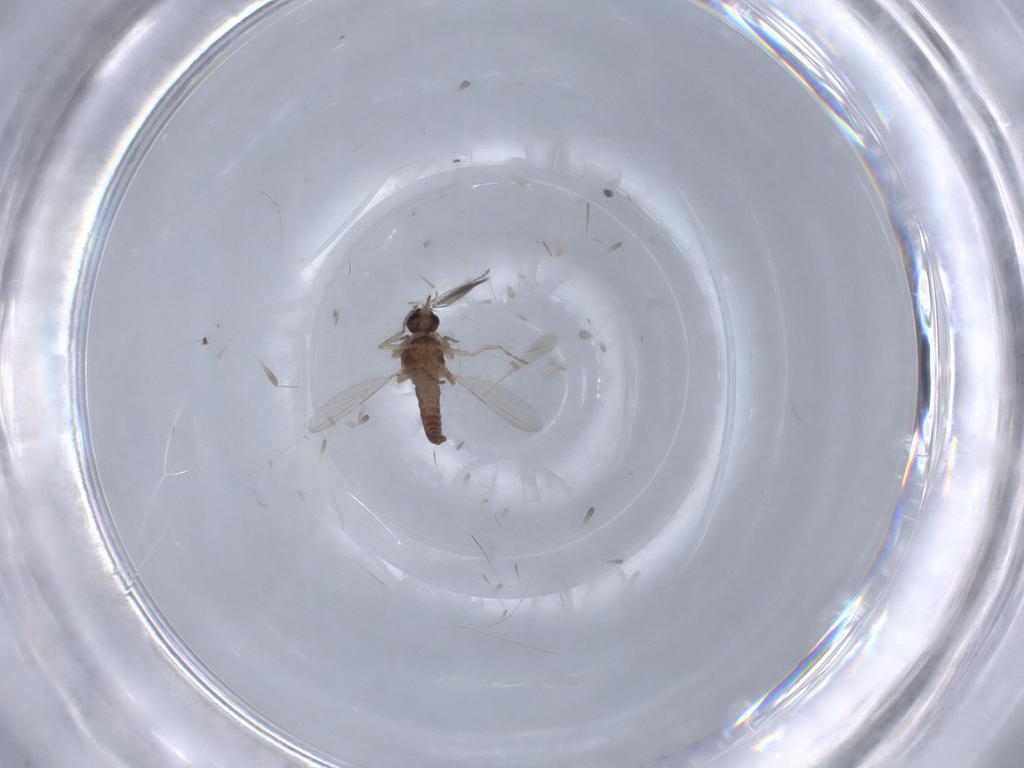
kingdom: Animalia
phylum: Arthropoda
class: Insecta
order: Diptera
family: Ceratopogonidae
